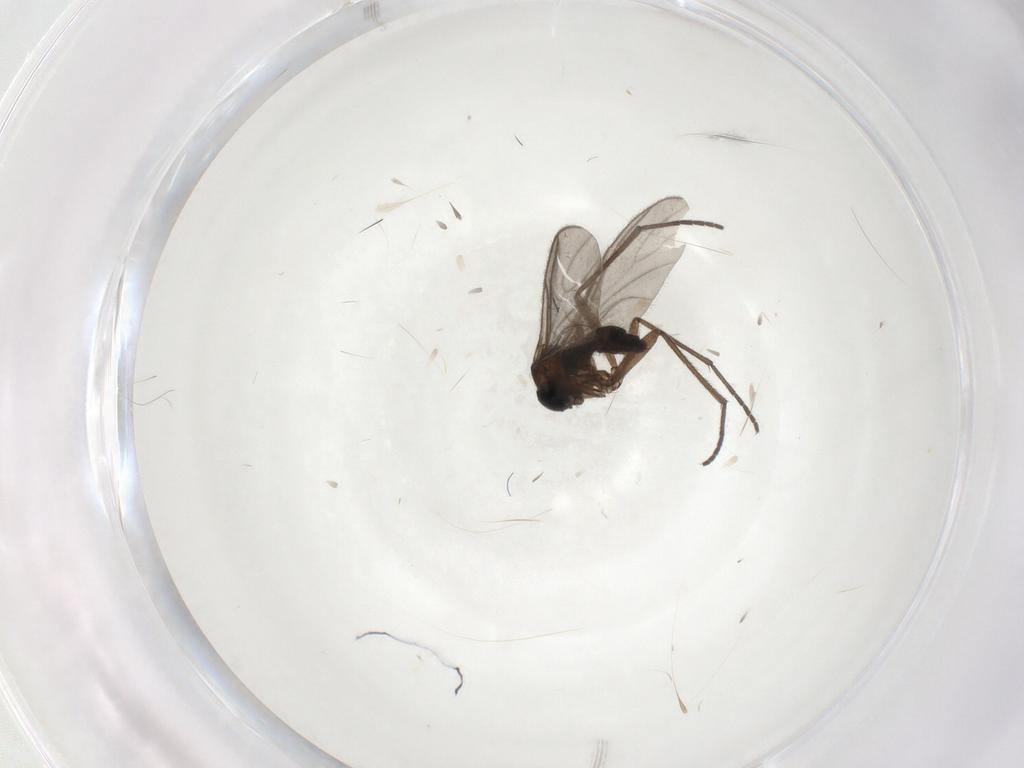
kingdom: Animalia
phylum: Arthropoda
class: Insecta
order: Diptera
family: Sciaridae
